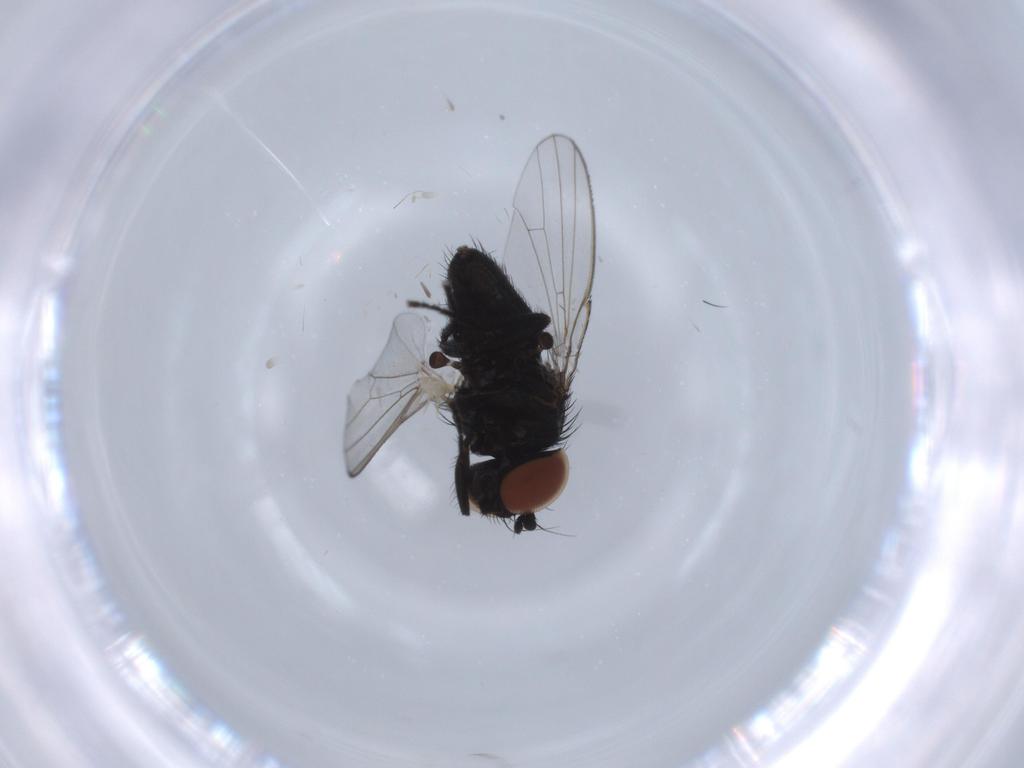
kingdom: Animalia
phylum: Arthropoda
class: Insecta
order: Diptera
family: Milichiidae
